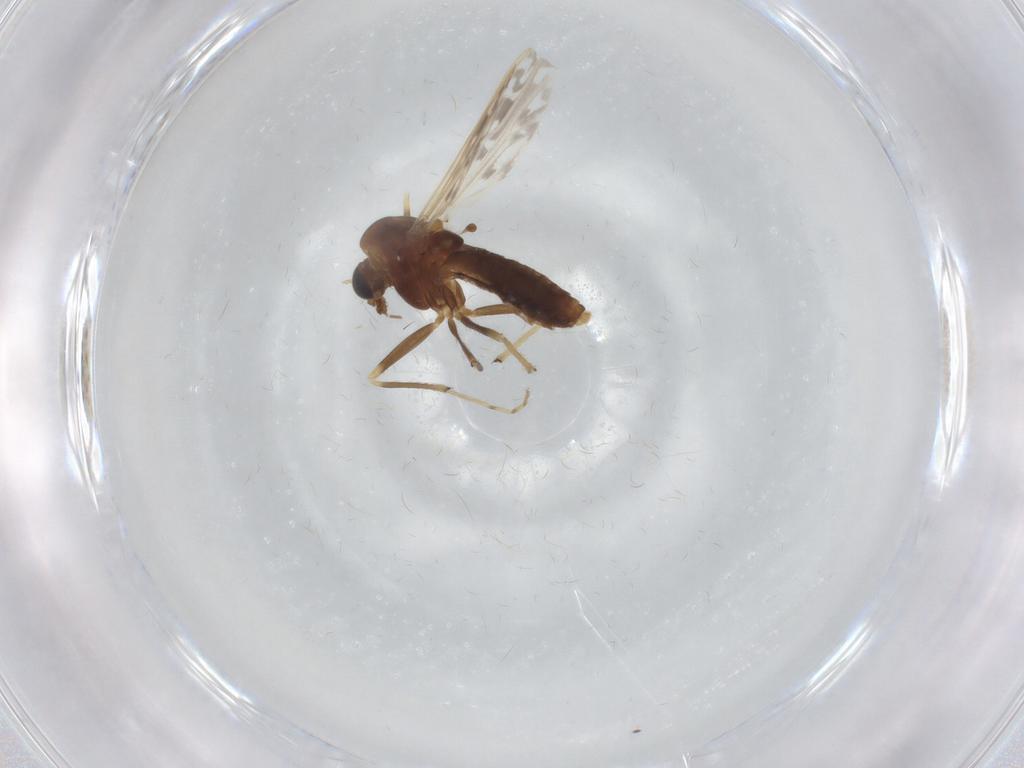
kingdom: Animalia
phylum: Arthropoda
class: Insecta
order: Diptera
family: Chironomidae
